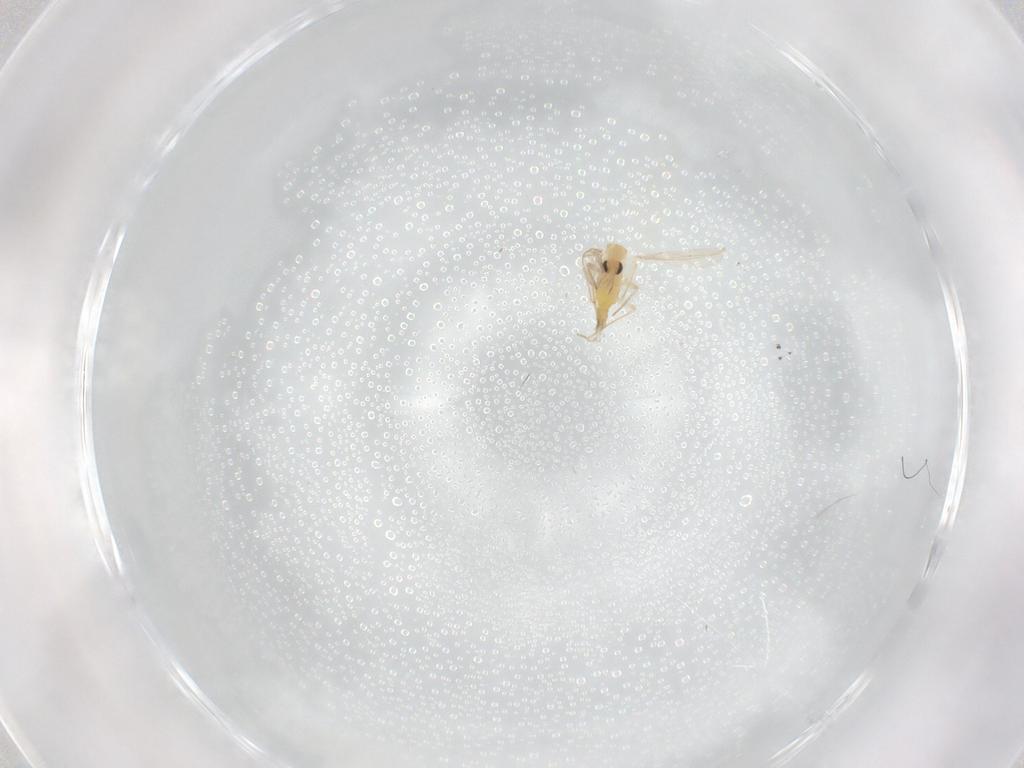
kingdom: Animalia
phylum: Arthropoda
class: Insecta
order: Diptera
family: Chironomidae
